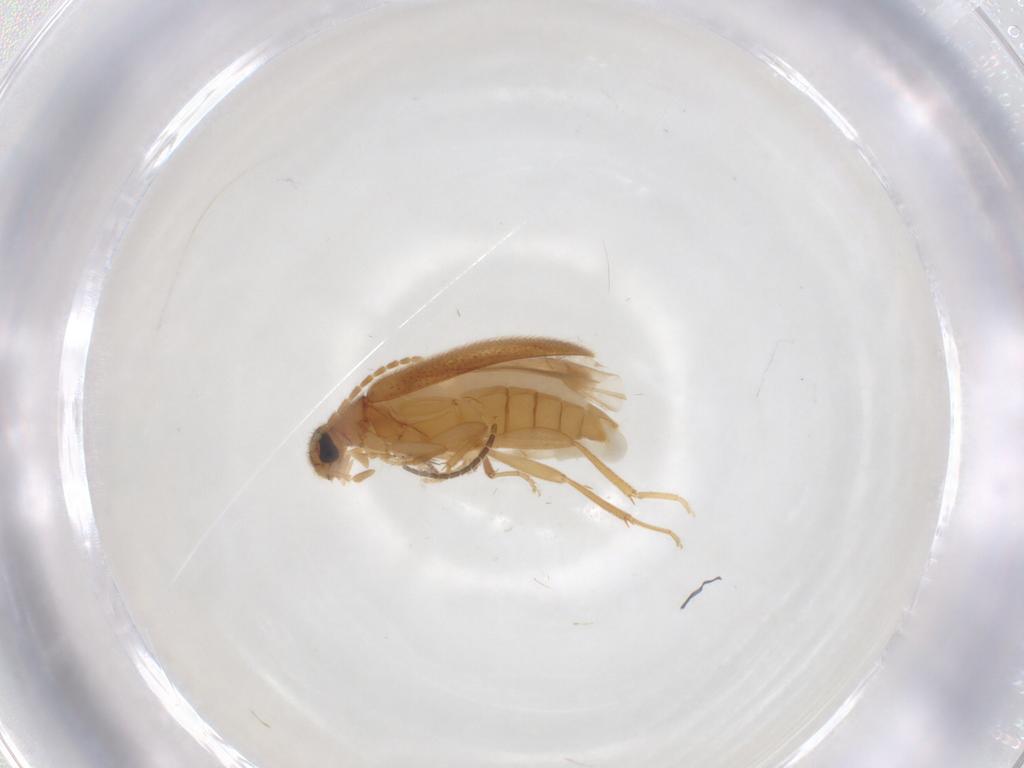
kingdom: Animalia
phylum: Arthropoda
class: Insecta
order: Coleoptera
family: Scraptiidae
